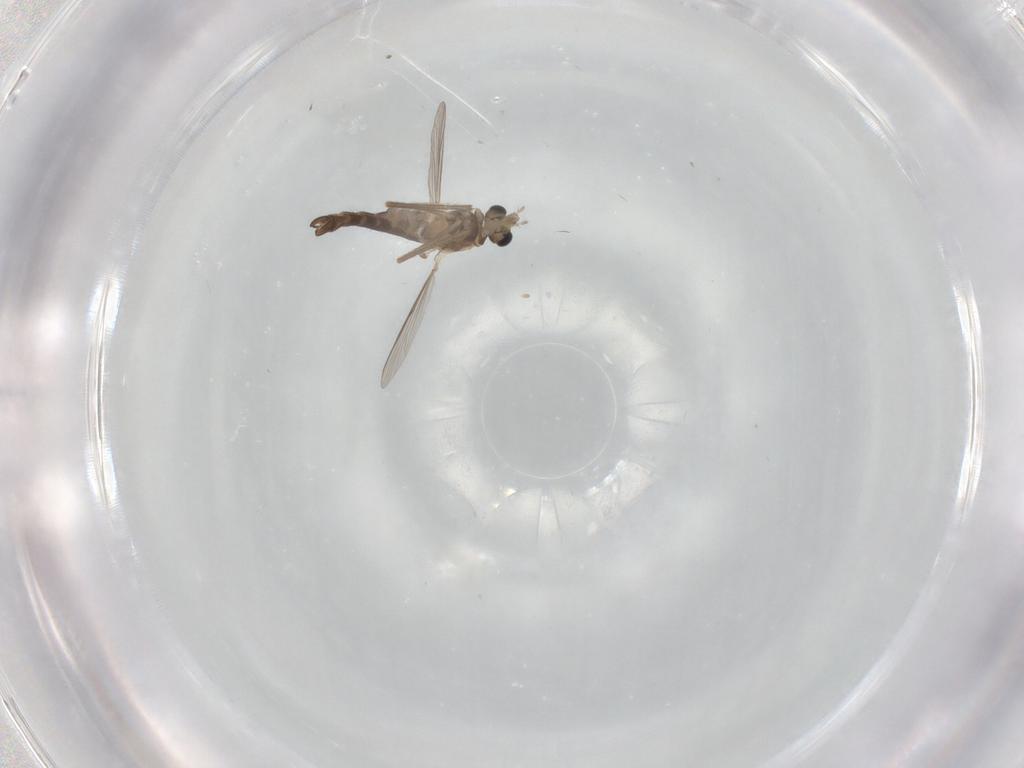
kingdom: Animalia
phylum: Arthropoda
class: Insecta
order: Diptera
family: Chironomidae
